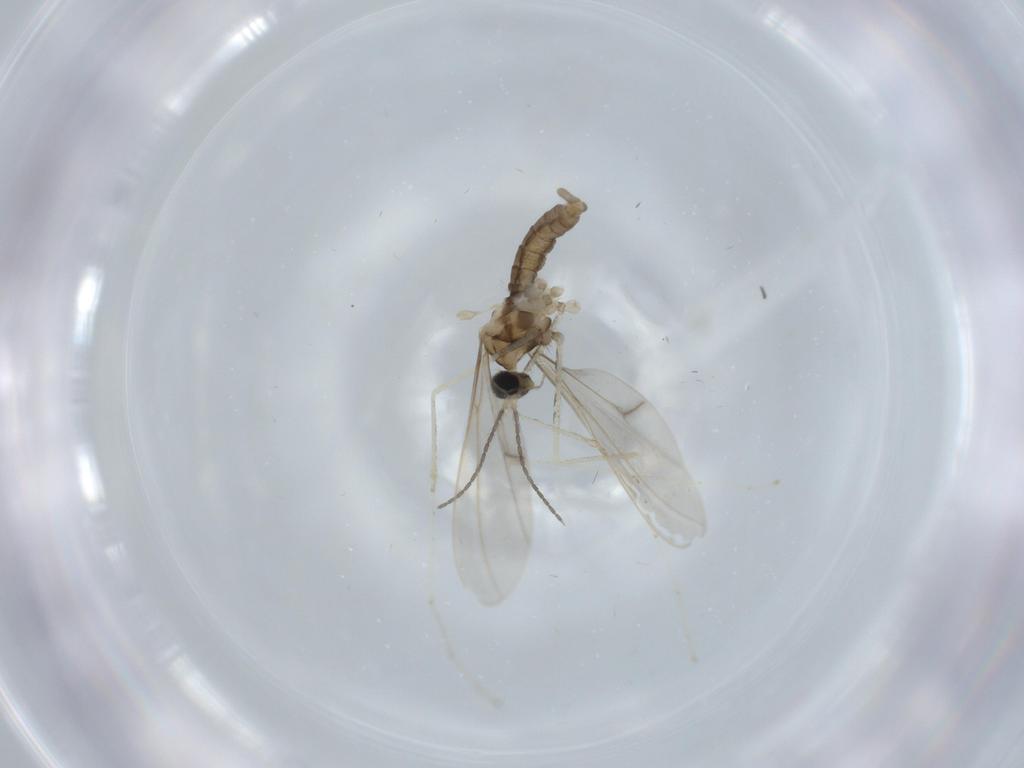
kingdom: Animalia
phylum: Arthropoda
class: Insecta
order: Diptera
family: Cecidomyiidae
